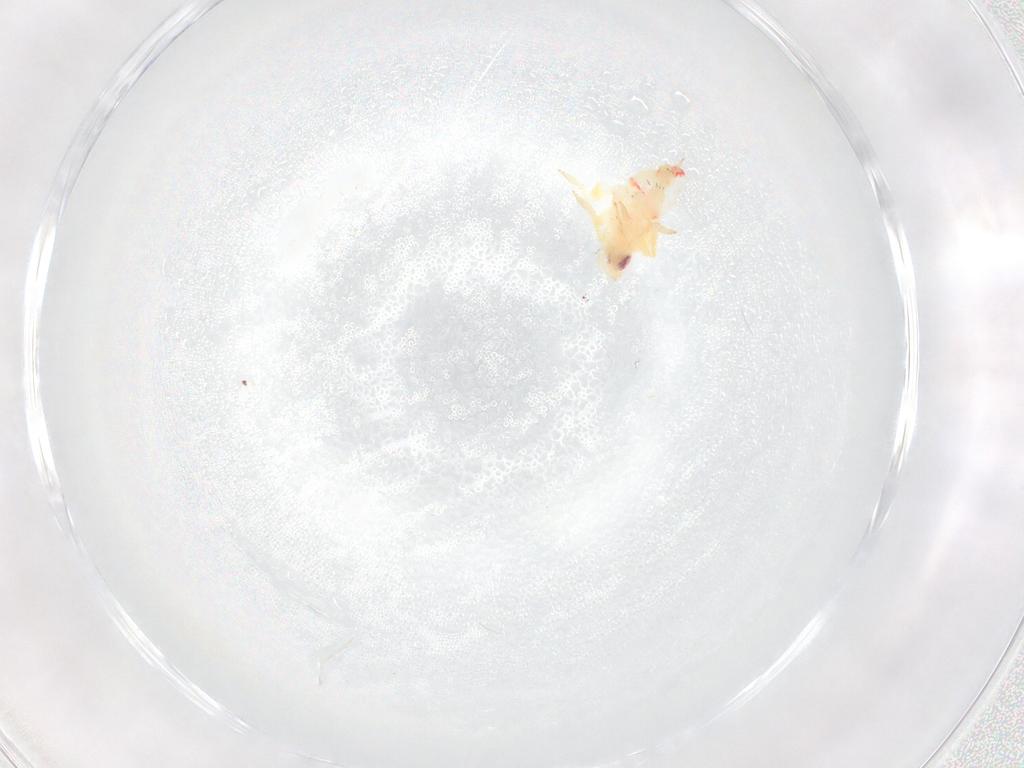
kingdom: Animalia
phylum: Arthropoda
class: Insecta
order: Hemiptera
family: Tropiduchidae
